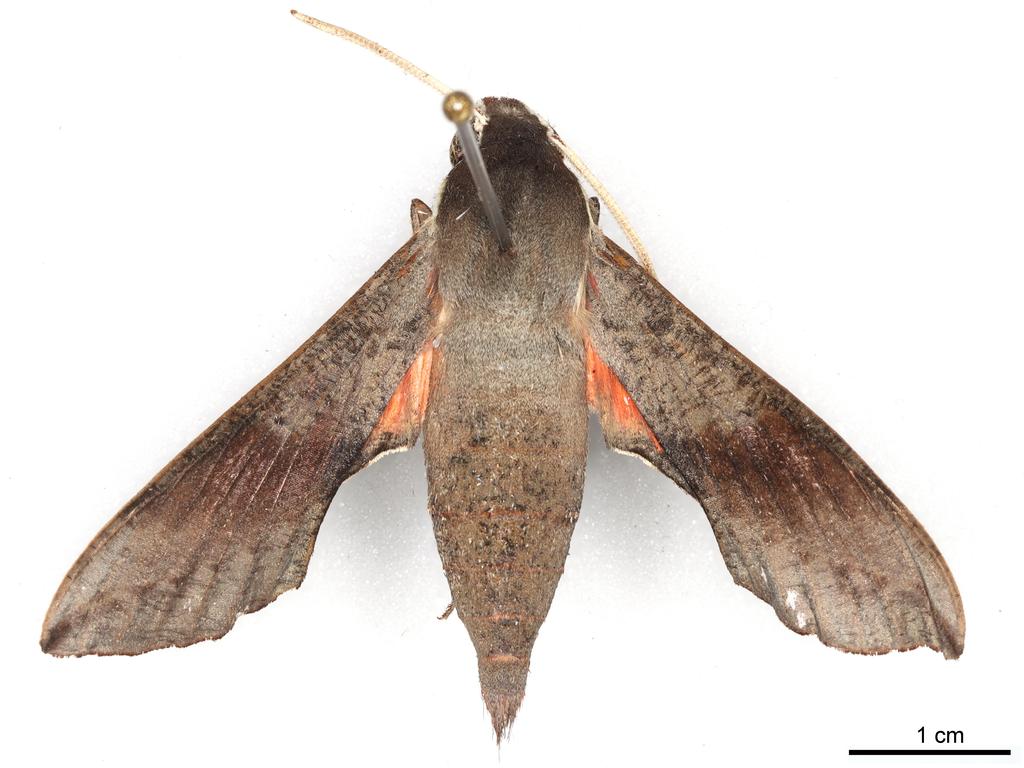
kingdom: Animalia
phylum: Arthropoda
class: Insecta
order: Lepidoptera
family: Sphingidae
